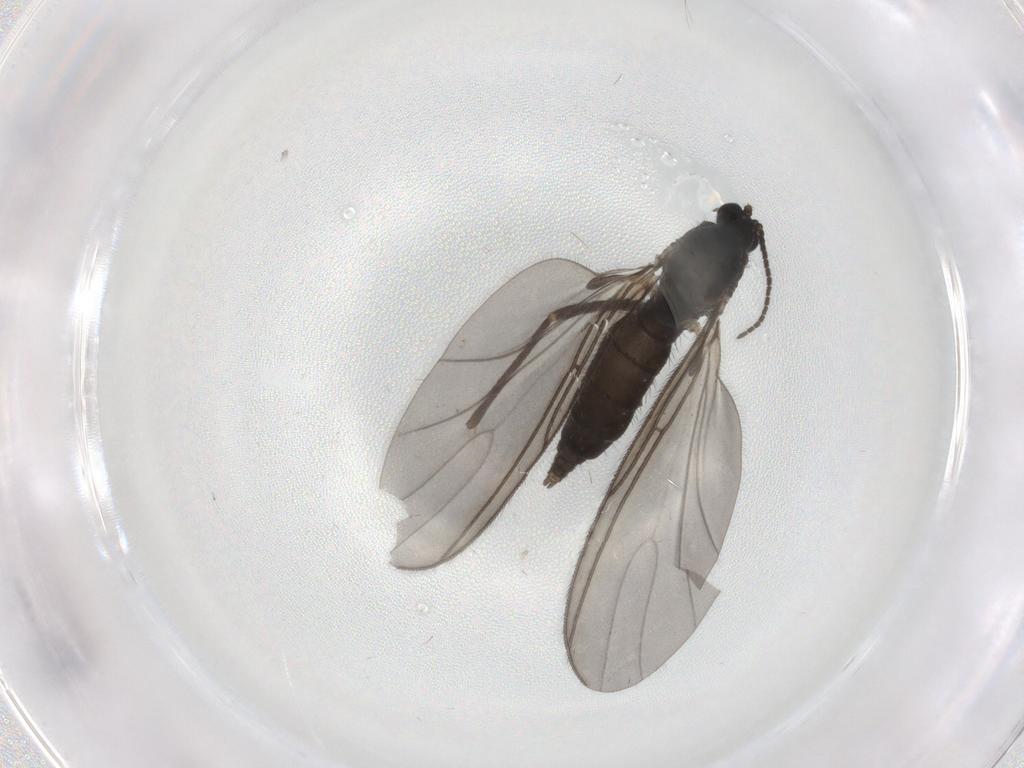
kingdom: Animalia
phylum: Arthropoda
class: Insecta
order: Diptera
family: Sciaridae
